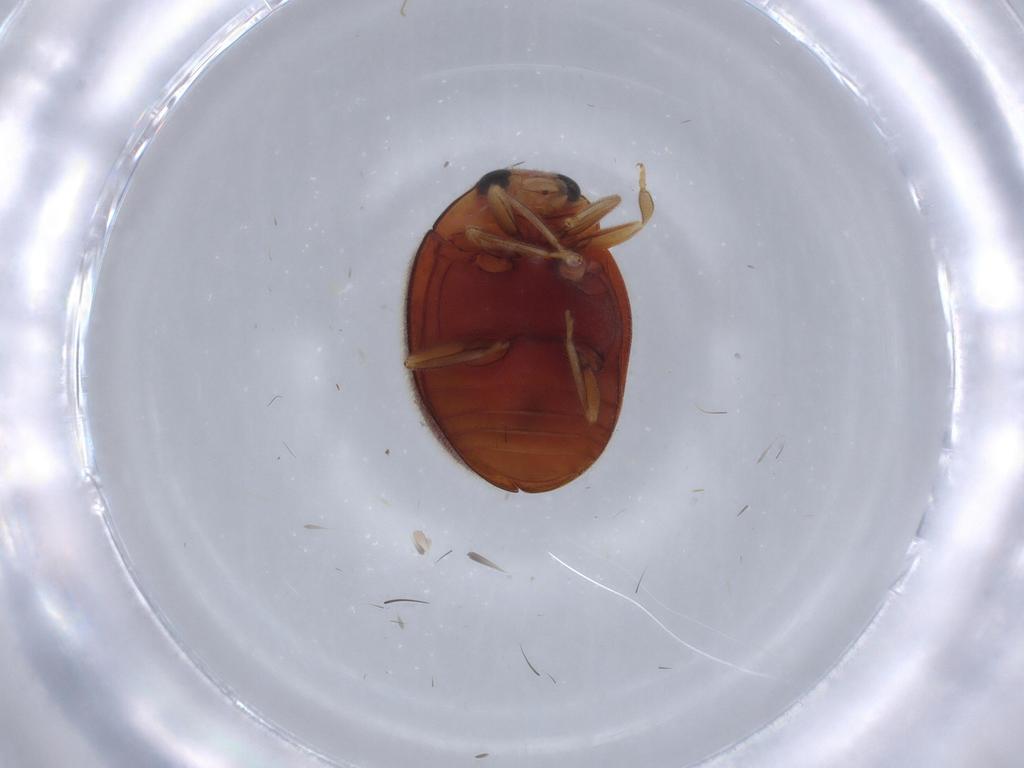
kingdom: Animalia
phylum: Arthropoda
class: Insecta
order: Coleoptera
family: Coccinellidae
